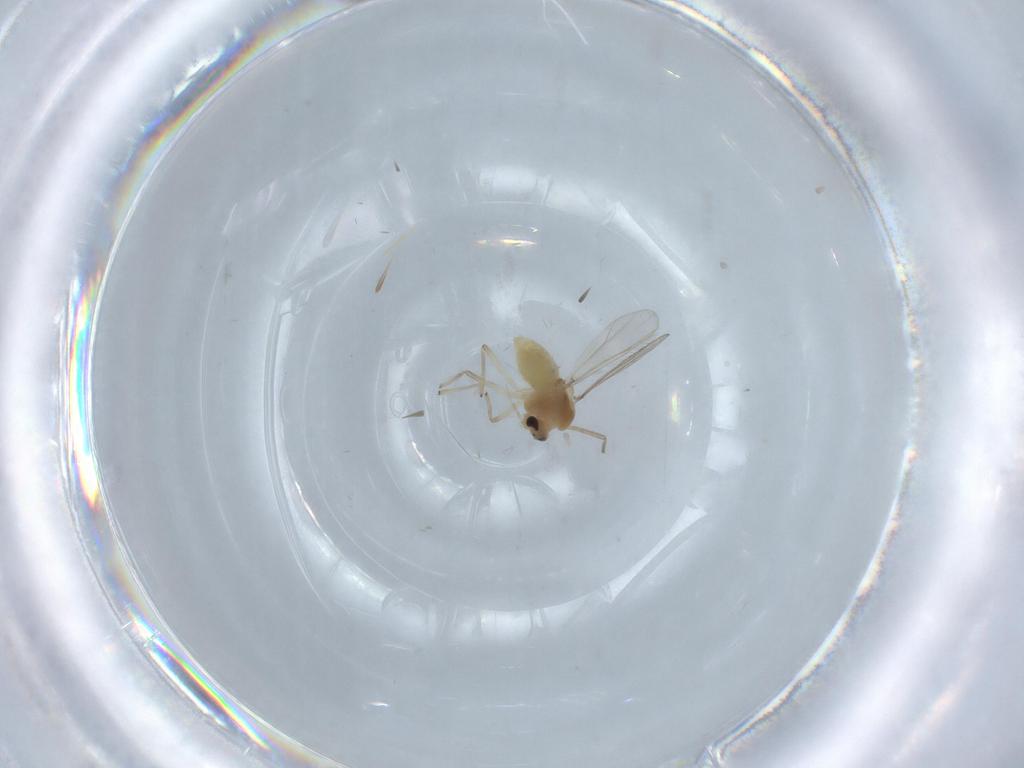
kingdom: Animalia
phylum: Arthropoda
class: Insecta
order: Diptera
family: Chironomidae
